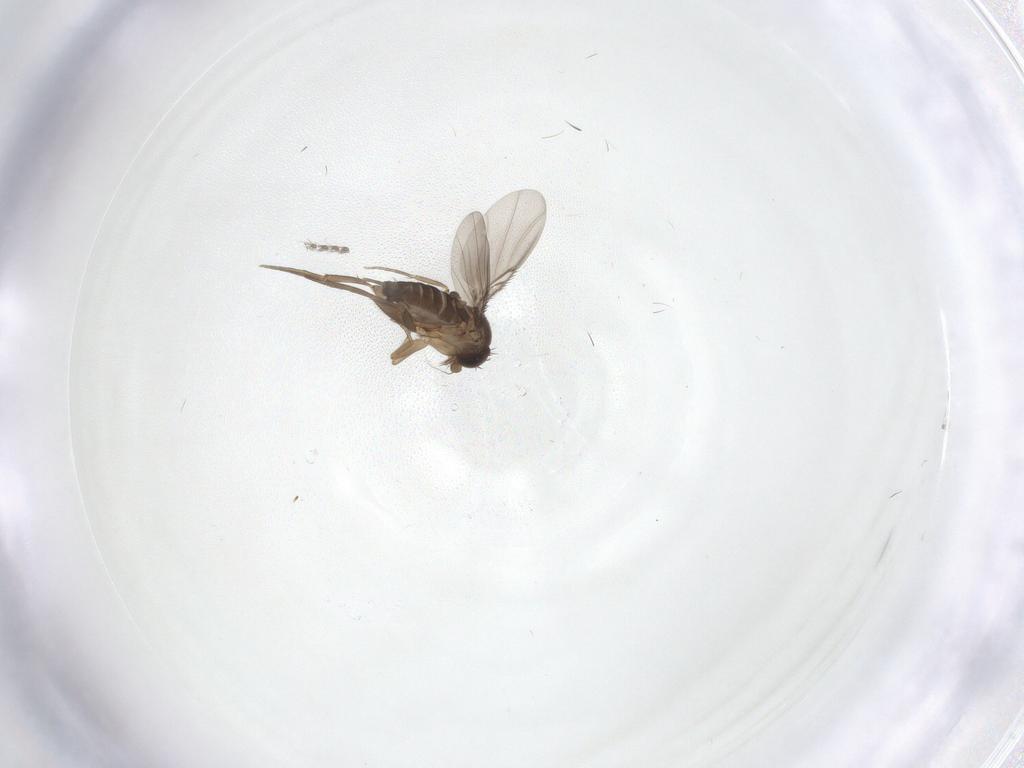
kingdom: Animalia
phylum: Arthropoda
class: Insecta
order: Diptera
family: Phoridae
